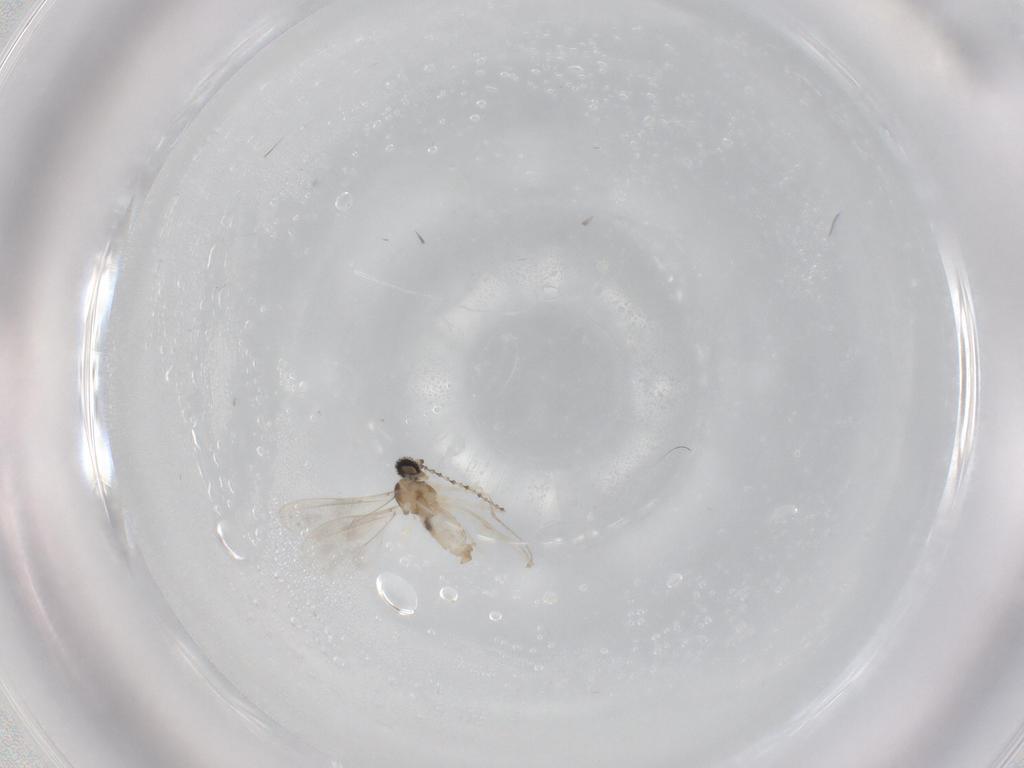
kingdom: Animalia
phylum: Arthropoda
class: Insecta
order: Diptera
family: Cecidomyiidae
